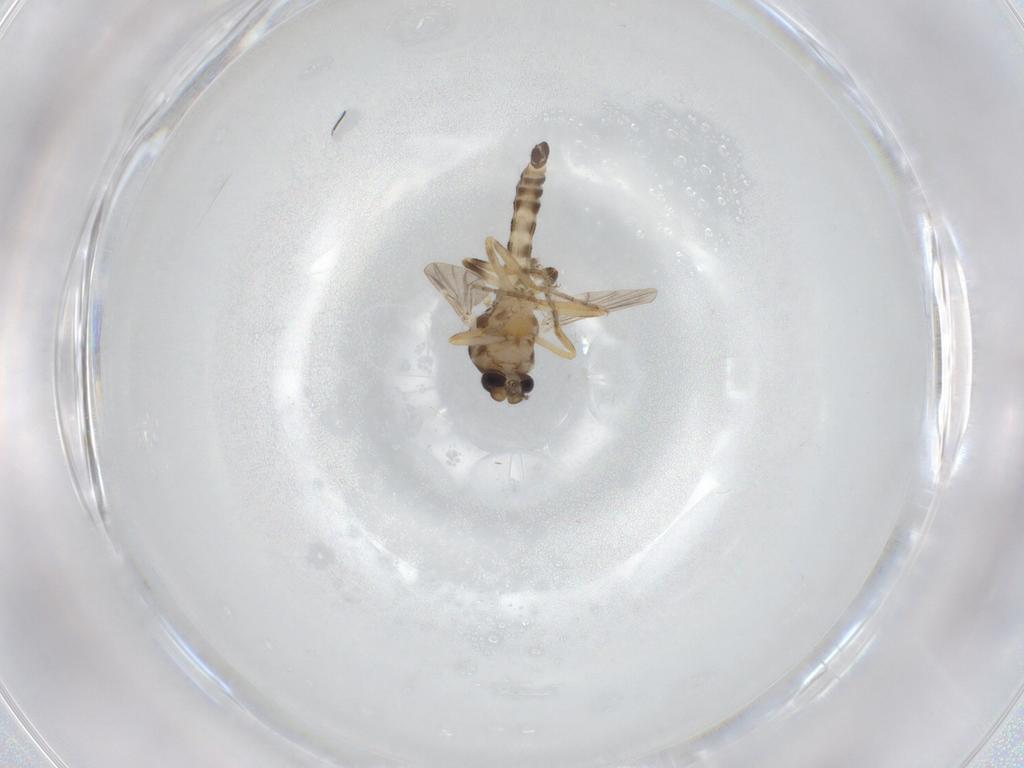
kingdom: Animalia
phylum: Arthropoda
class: Insecta
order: Diptera
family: Ceratopogonidae
